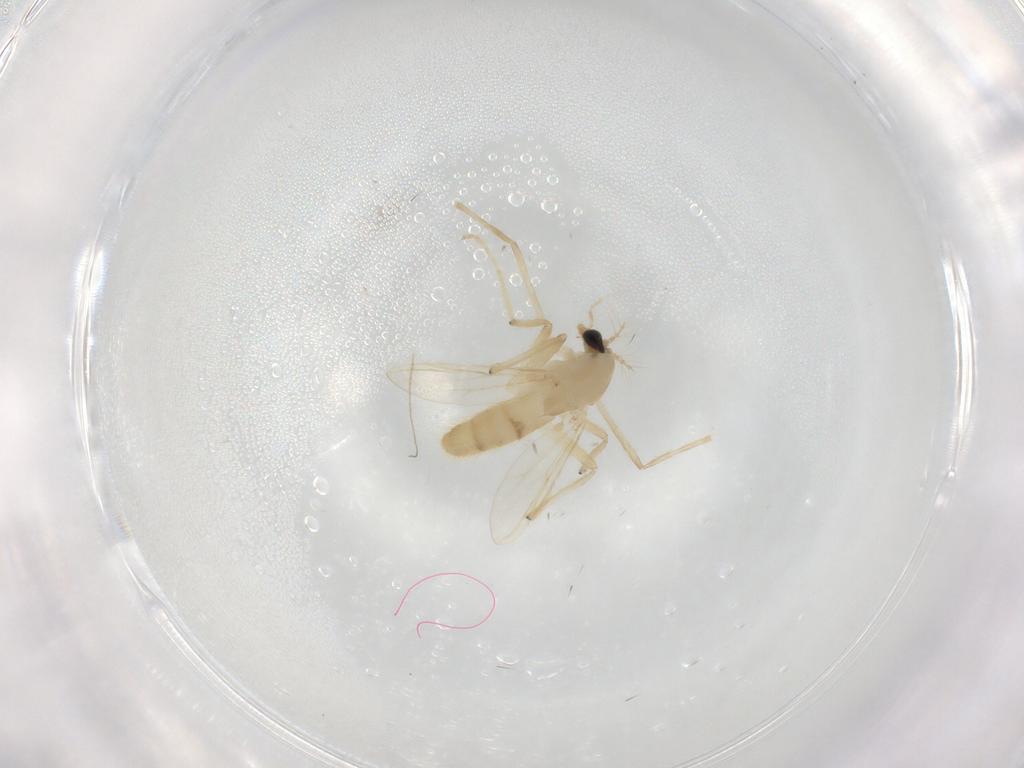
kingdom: Animalia
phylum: Arthropoda
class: Insecta
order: Diptera
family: Chironomidae
